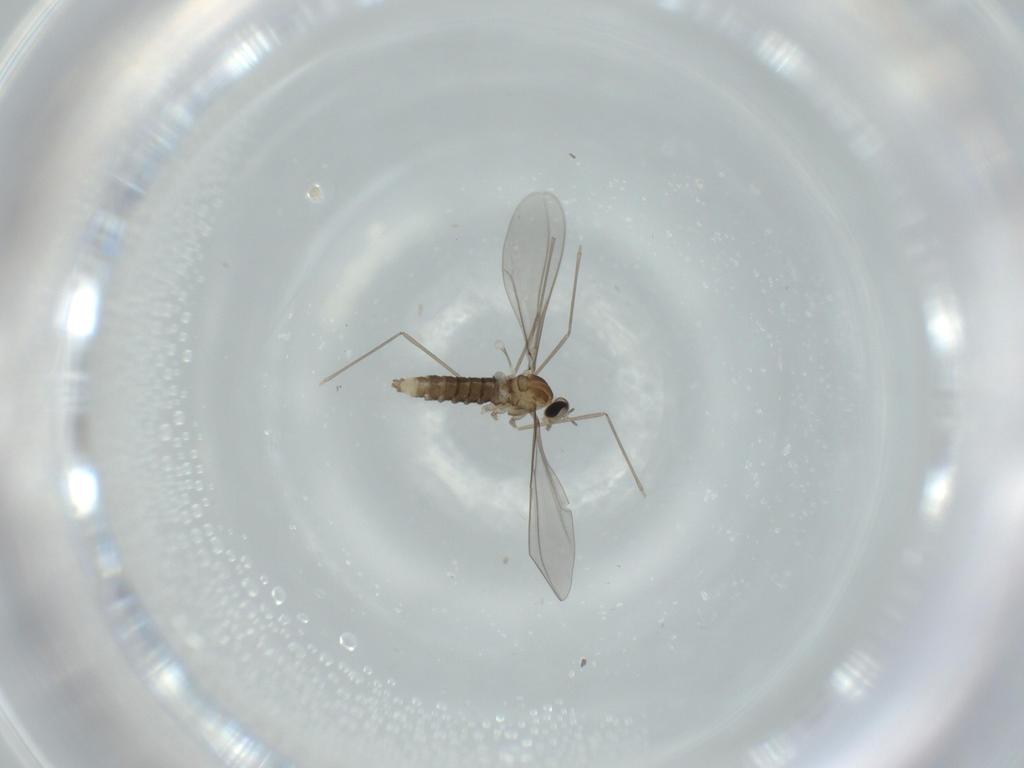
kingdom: Animalia
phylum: Arthropoda
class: Insecta
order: Diptera
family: Cecidomyiidae
